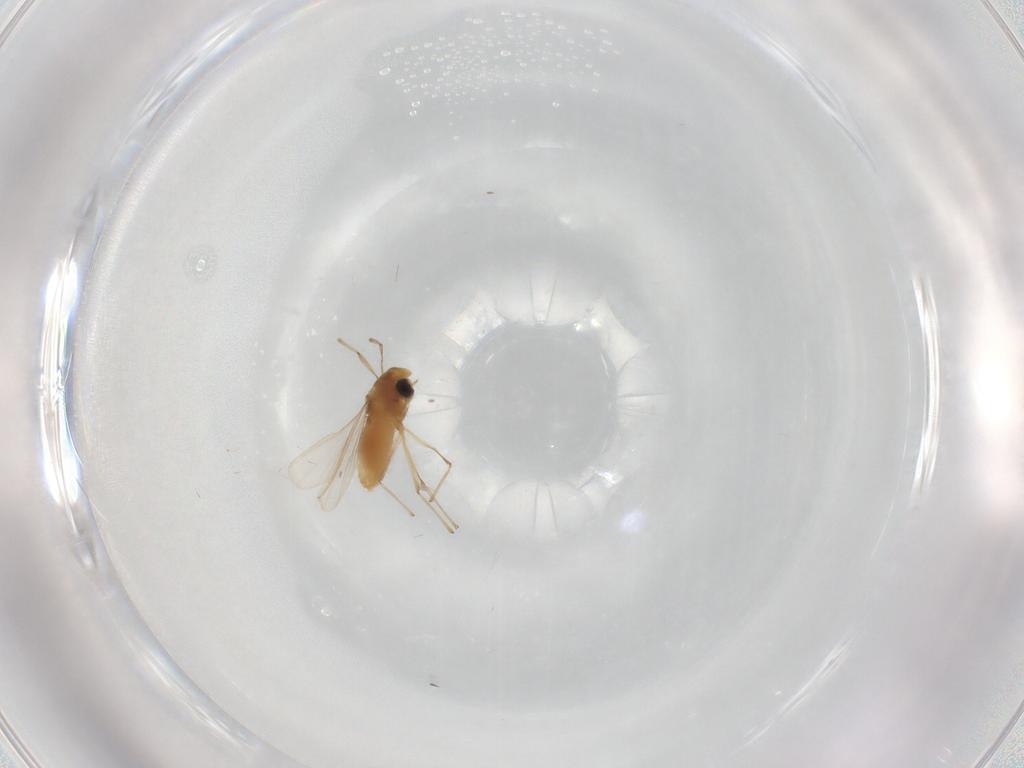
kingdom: Animalia
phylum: Arthropoda
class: Insecta
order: Diptera
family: Chironomidae
